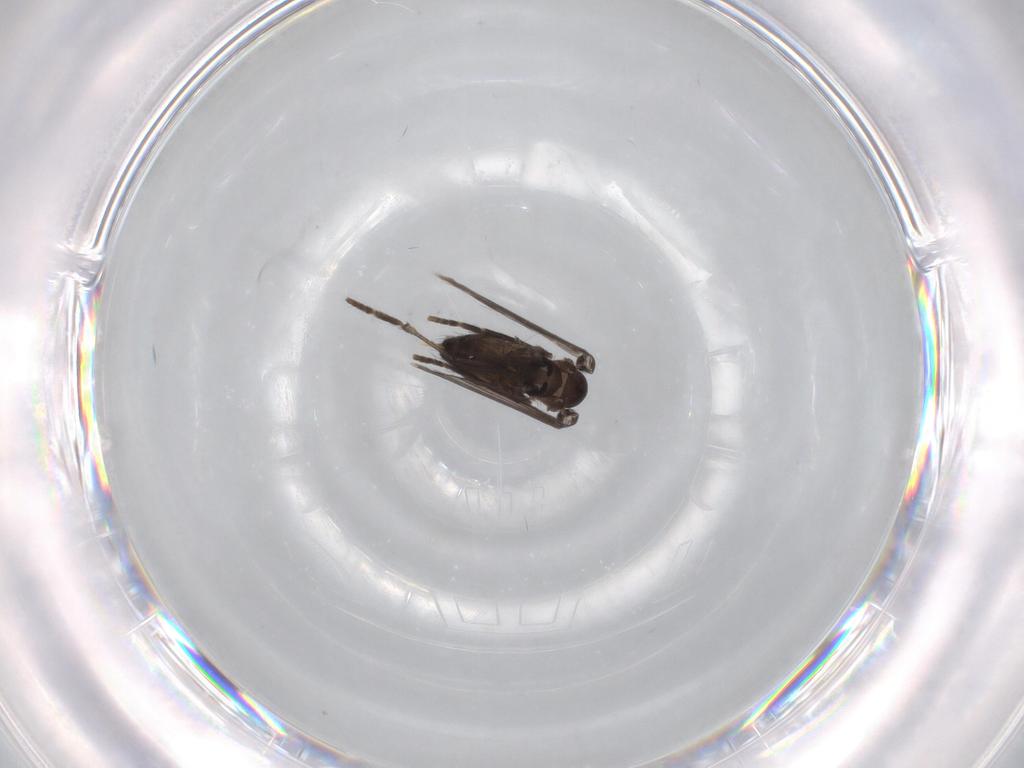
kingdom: Animalia
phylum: Arthropoda
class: Insecta
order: Diptera
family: Psychodidae
